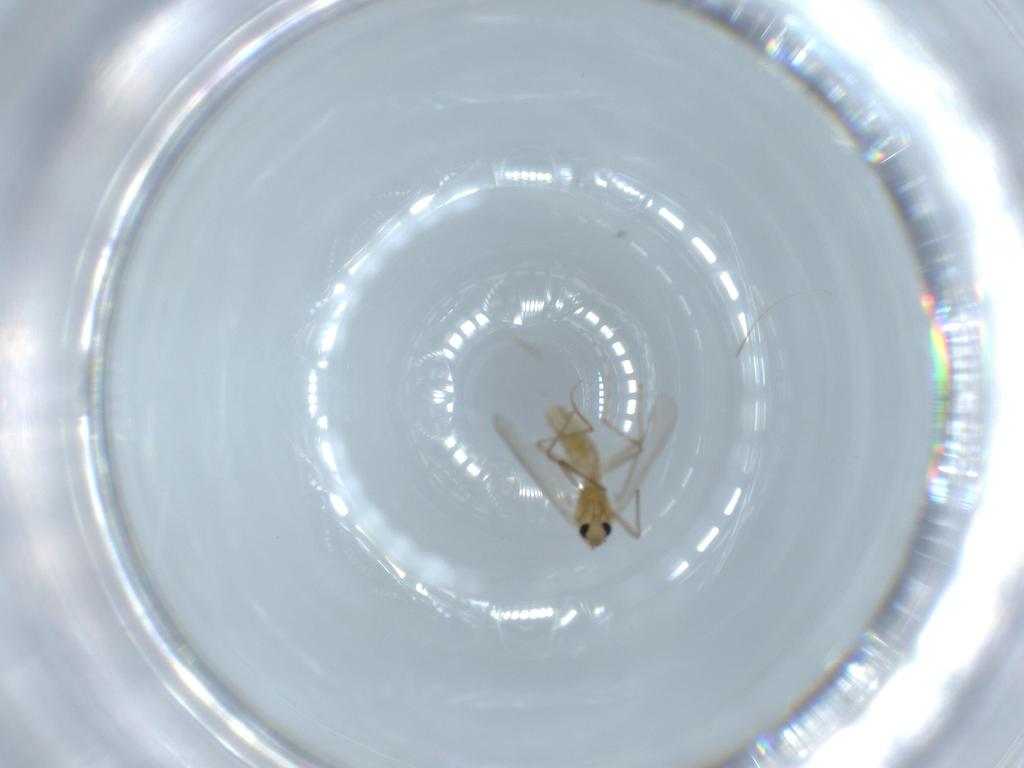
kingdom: Animalia
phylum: Arthropoda
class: Insecta
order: Diptera
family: Chironomidae
